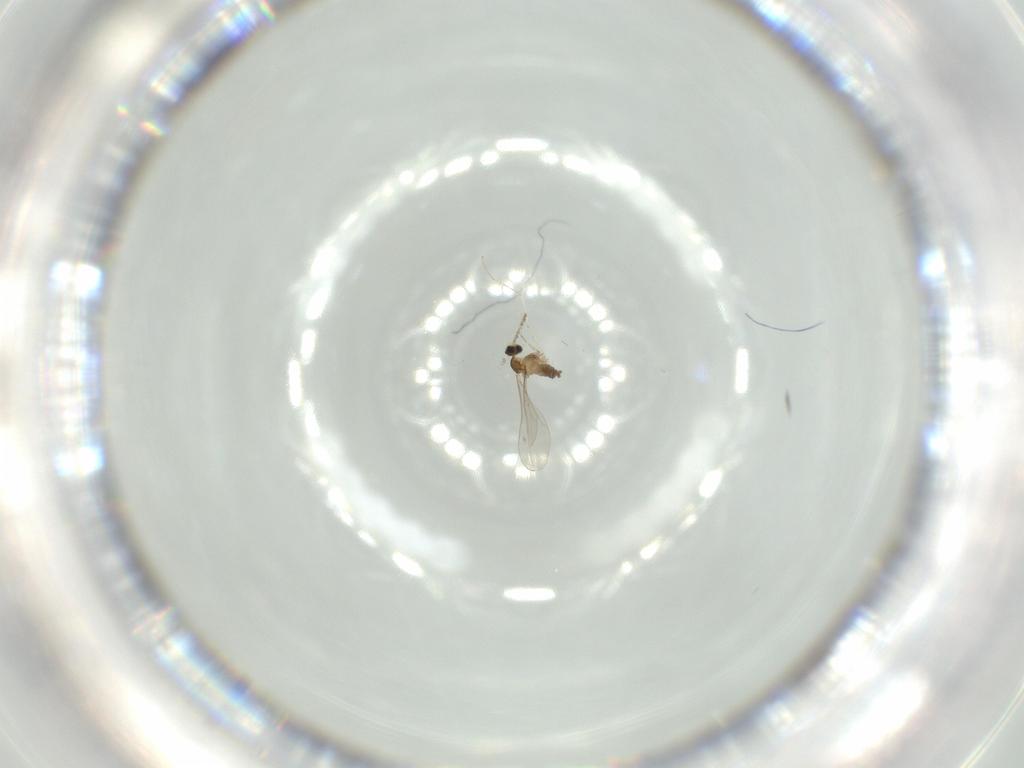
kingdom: Animalia
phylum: Arthropoda
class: Insecta
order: Diptera
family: Cecidomyiidae
